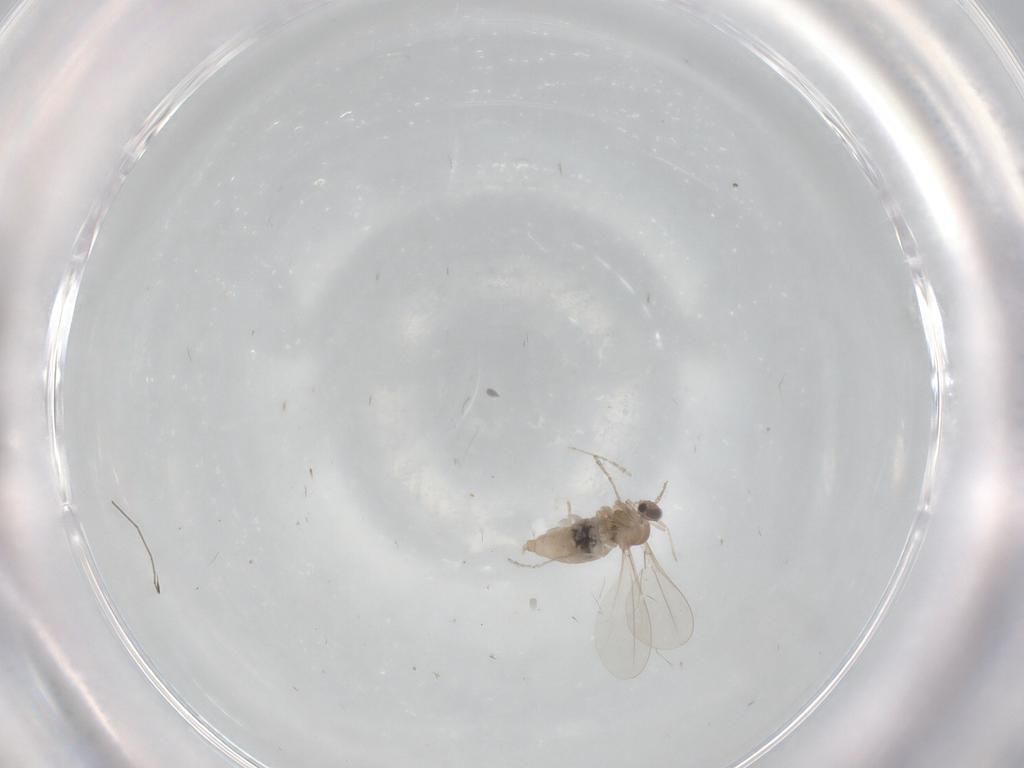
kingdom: Animalia
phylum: Arthropoda
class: Insecta
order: Diptera
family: Cecidomyiidae
